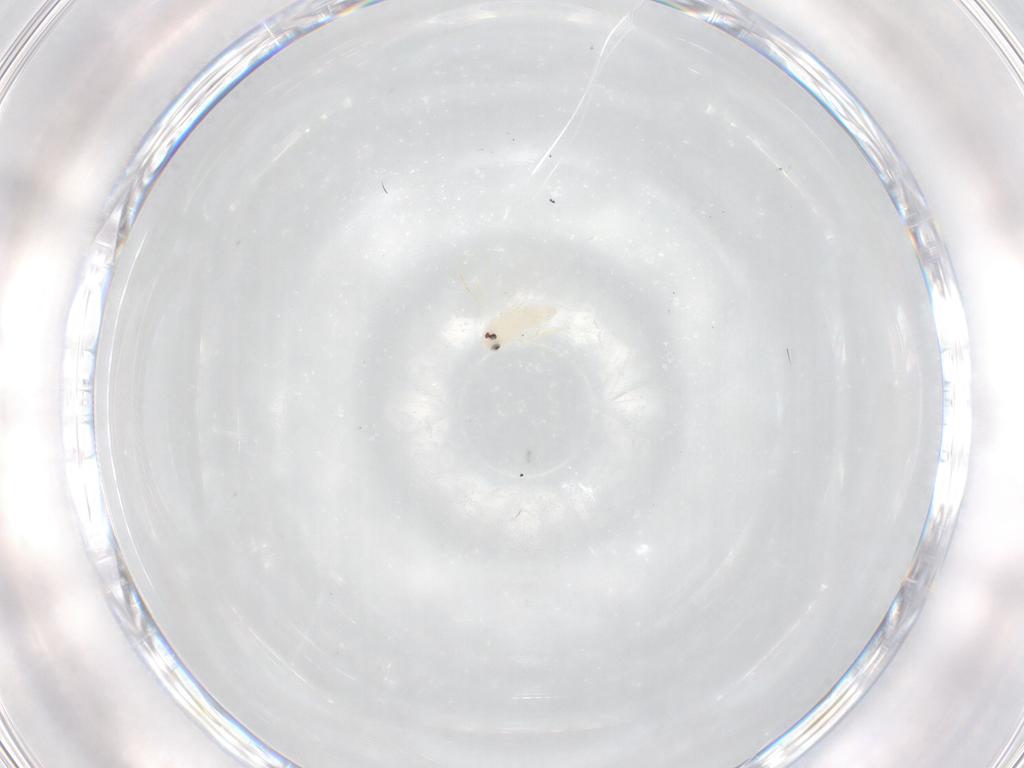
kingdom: Animalia
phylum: Arthropoda
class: Insecta
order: Hemiptera
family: Aleyrodidae
